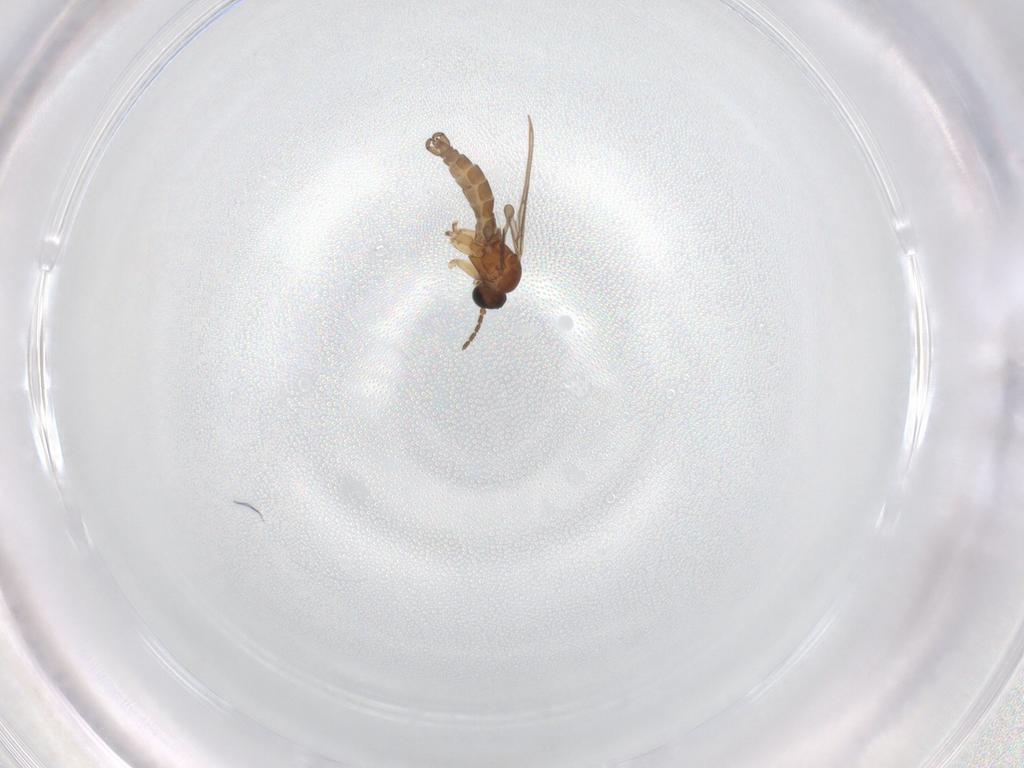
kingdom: Animalia
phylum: Arthropoda
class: Insecta
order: Diptera
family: Sciaridae
